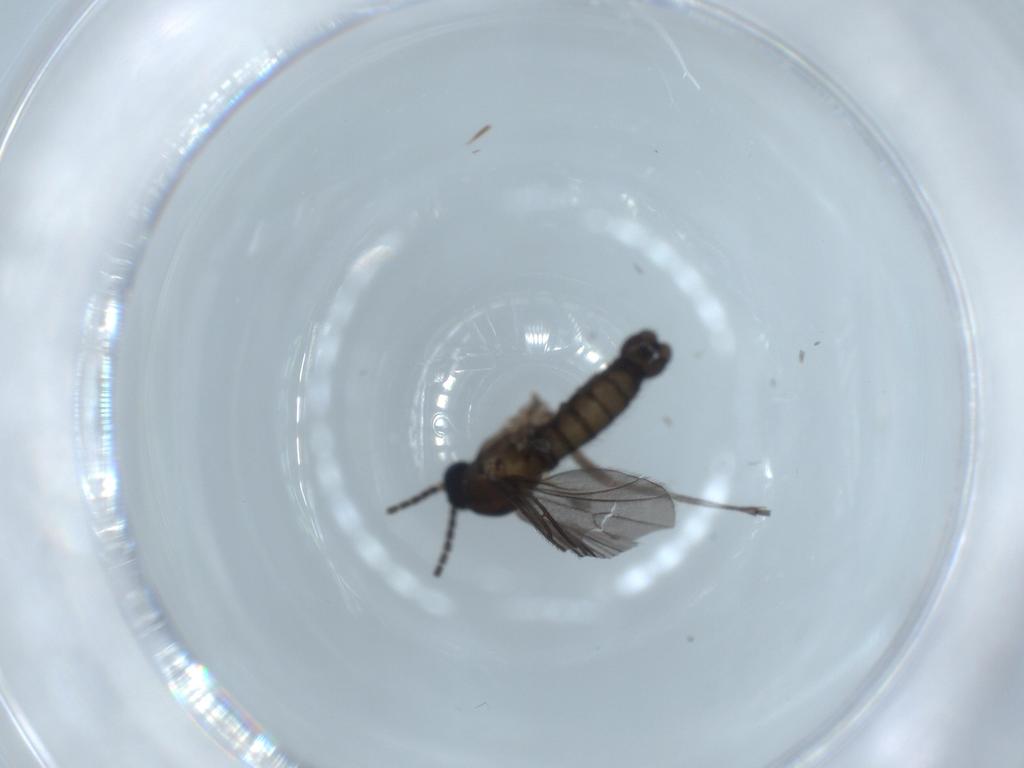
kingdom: Animalia
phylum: Arthropoda
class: Insecta
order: Diptera
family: Sciaridae
